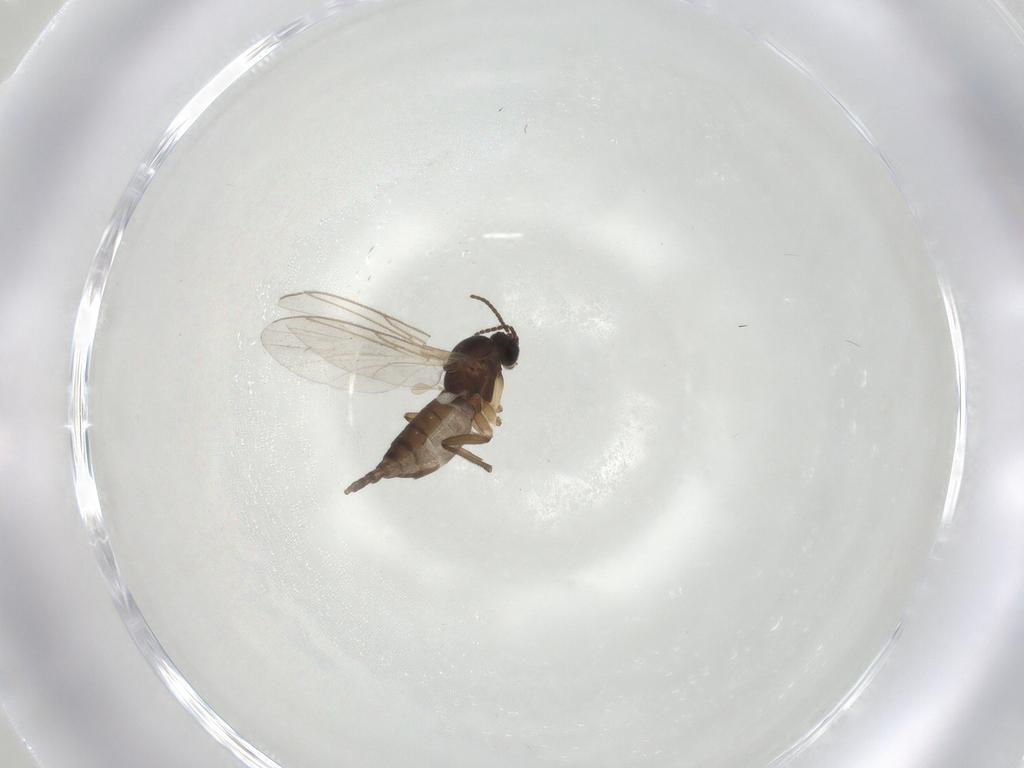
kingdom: Animalia
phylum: Arthropoda
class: Insecta
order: Diptera
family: Sciaridae
